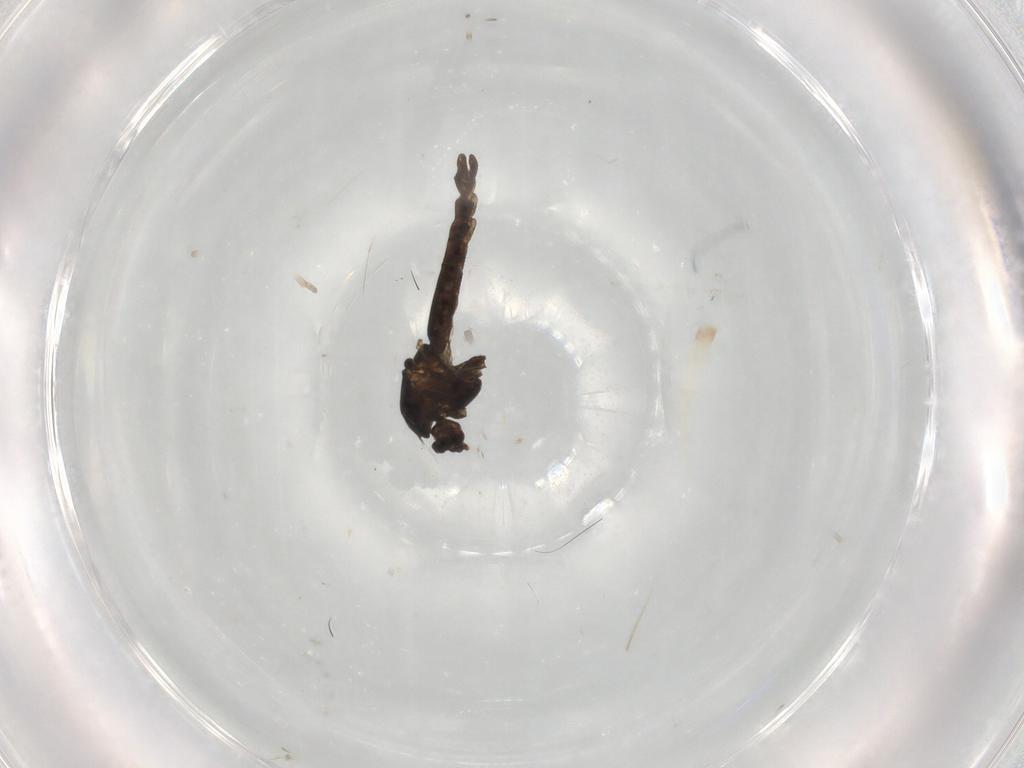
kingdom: Animalia
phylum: Arthropoda
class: Insecta
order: Diptera
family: Chironomidae
